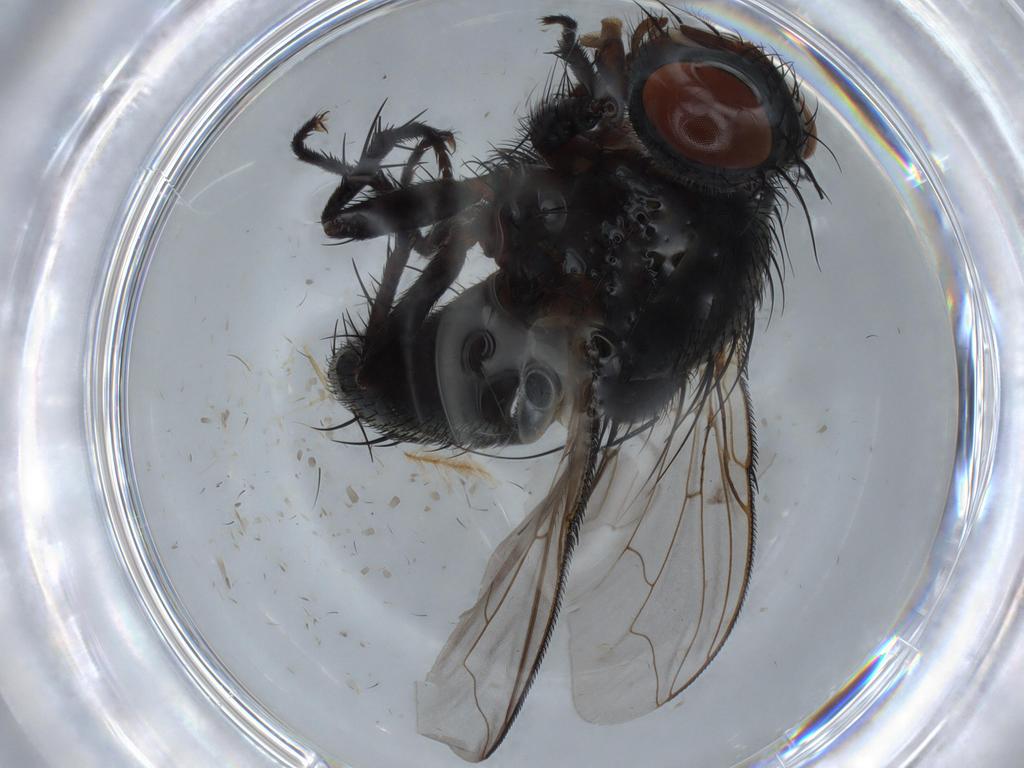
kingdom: Animalia
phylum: Arthropoda
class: Insecta
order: Diptera
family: Sarcophagidae
